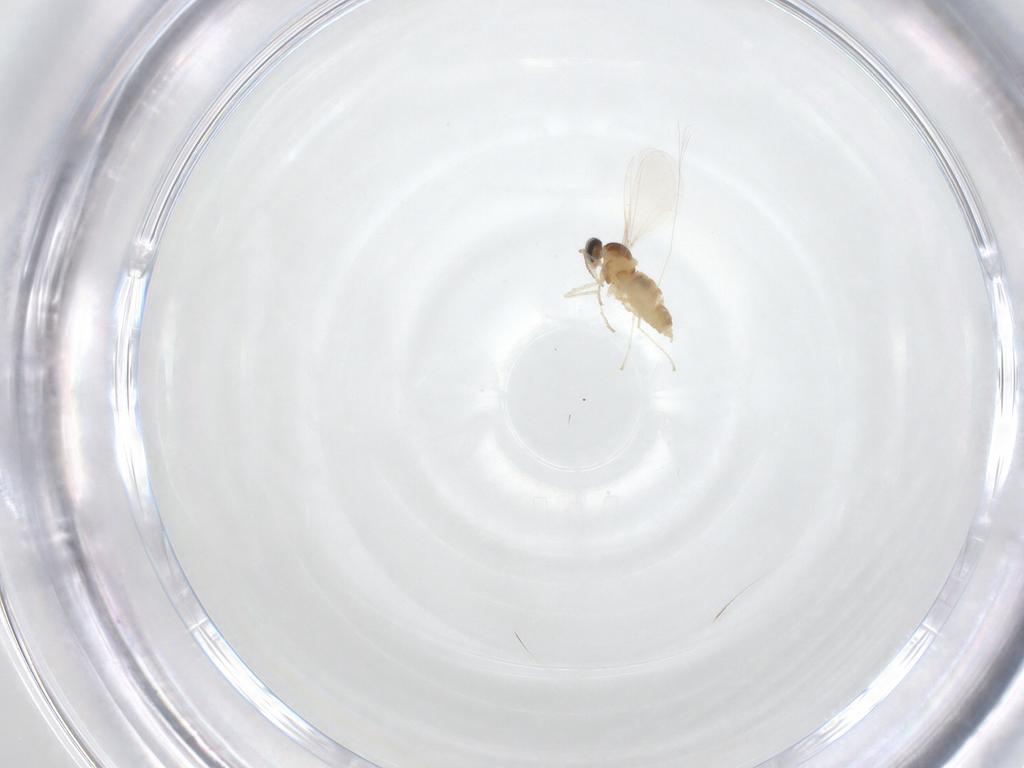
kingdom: Animalia
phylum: Arthropoda
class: Insecta
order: Diptera
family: Cecidomyiidae
